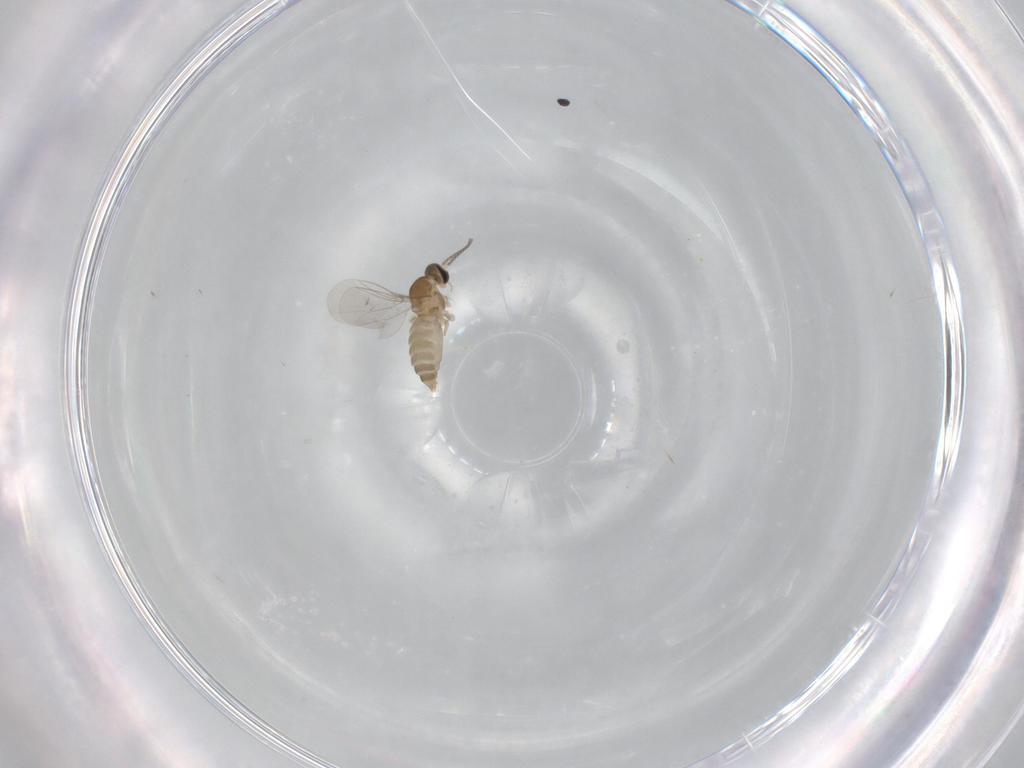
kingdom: Animalia
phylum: Arthropoda
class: Insecta
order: Diptera
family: Cecidomyiidae
